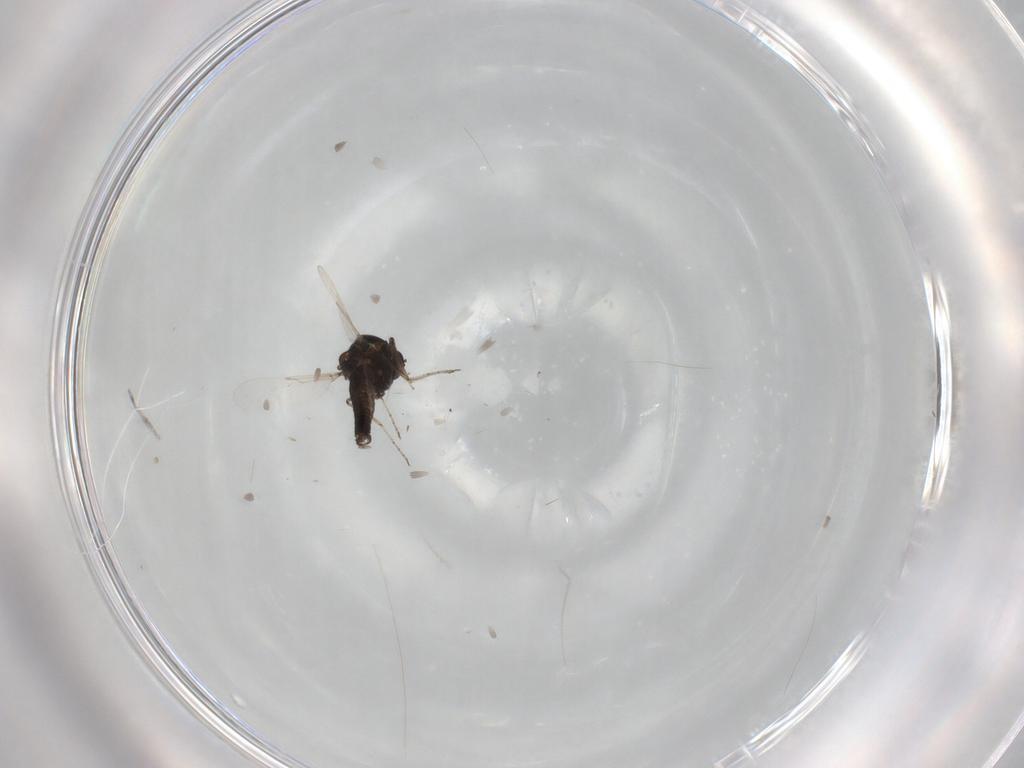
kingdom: Animalia
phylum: Arthropoda
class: Insecta
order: Diptera
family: Ceratopogonidae
